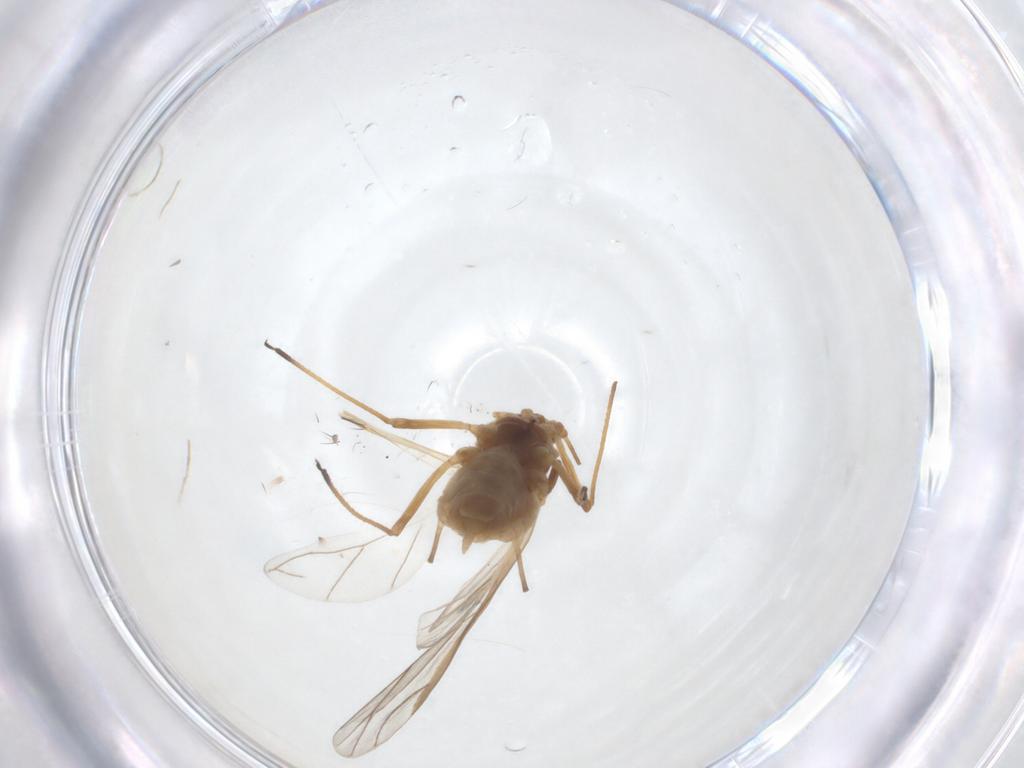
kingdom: Animalia
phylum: Arthropoda
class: Insecta
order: Hemiptera
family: Aphididae
